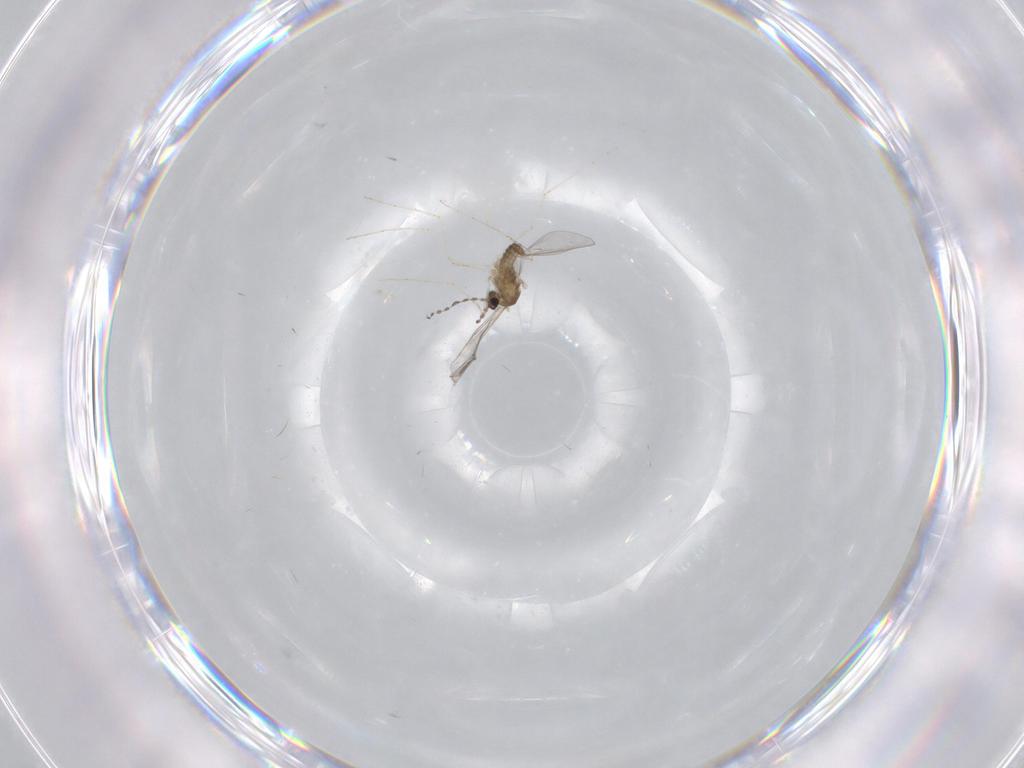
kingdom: Animalia
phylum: Arthropoda
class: Insecta
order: Diptera
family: Cecidomyiidae
